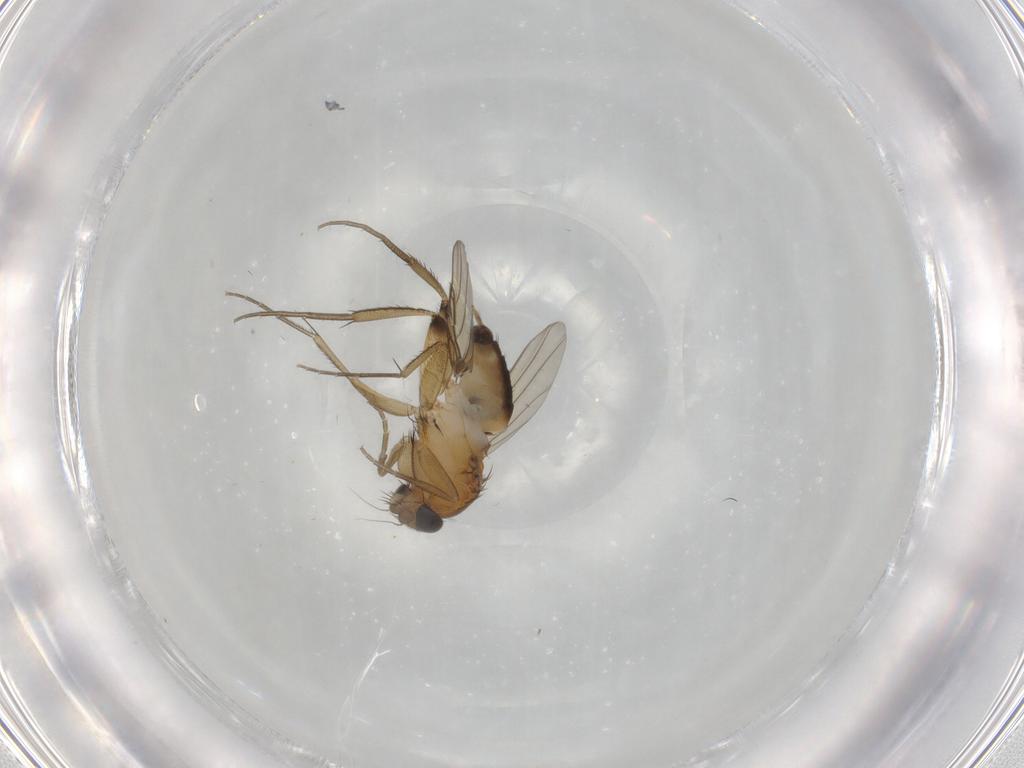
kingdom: Animalia
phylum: Arthropoda
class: Insecta
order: Diptera
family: Phoridae
